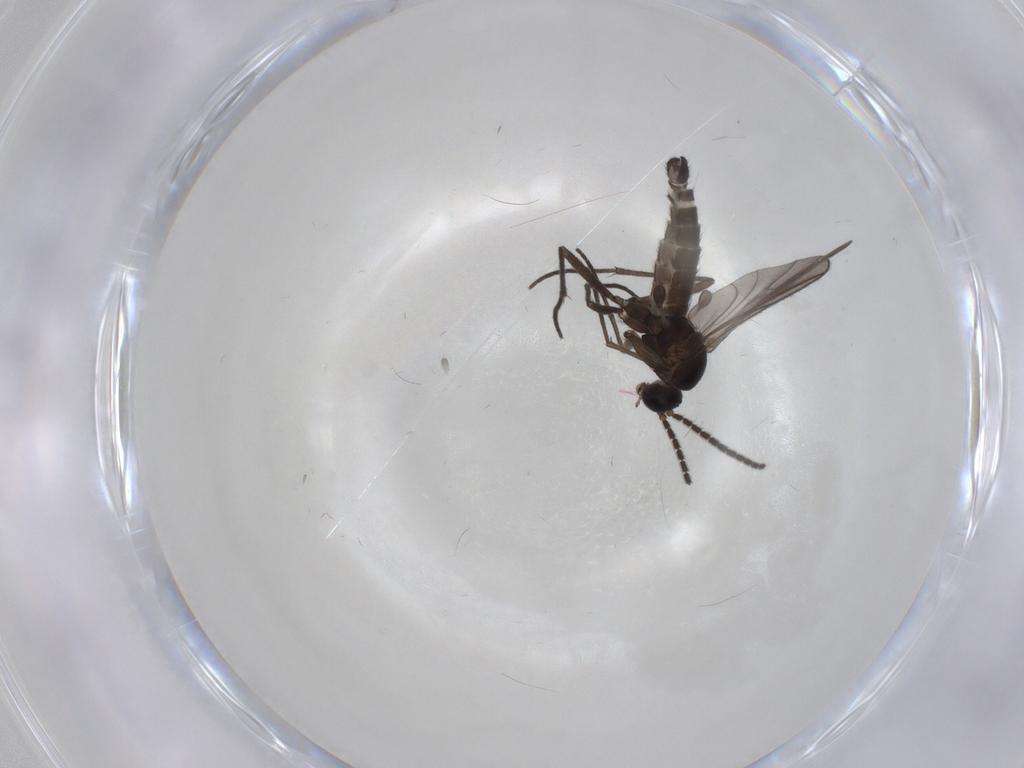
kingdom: Animalia
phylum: Arthropoda
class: Insecta
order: Diptera
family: Sciaridae
